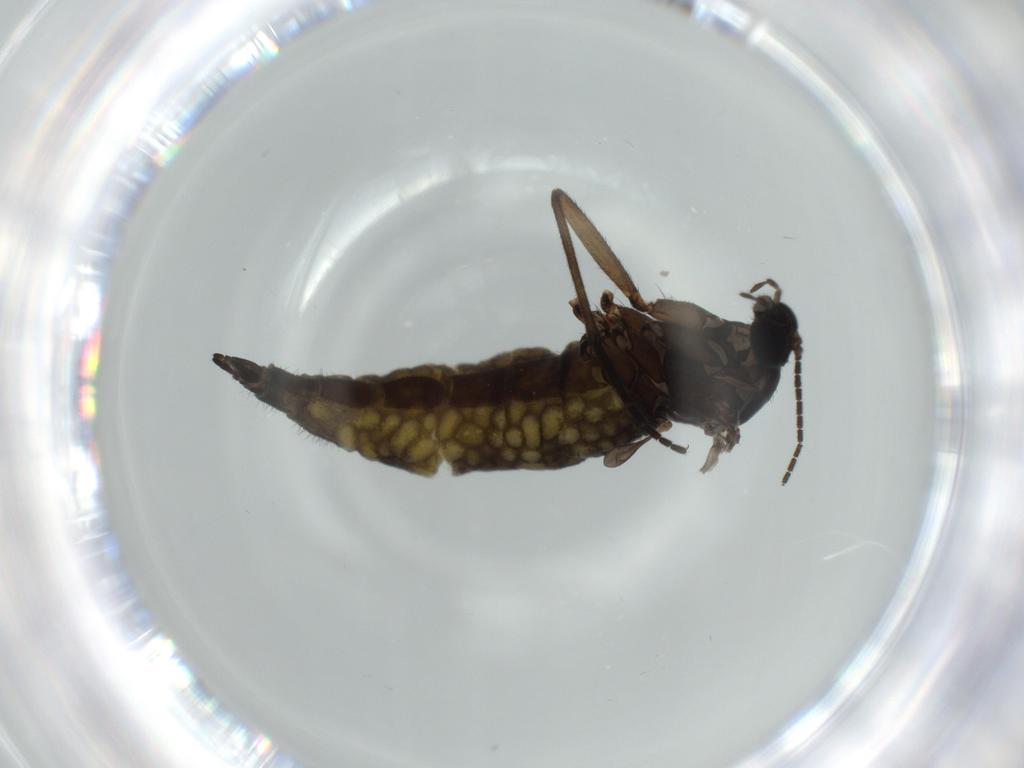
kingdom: Animalia
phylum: Arthropoda
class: Insecta
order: Diptera
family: Sciaridae
